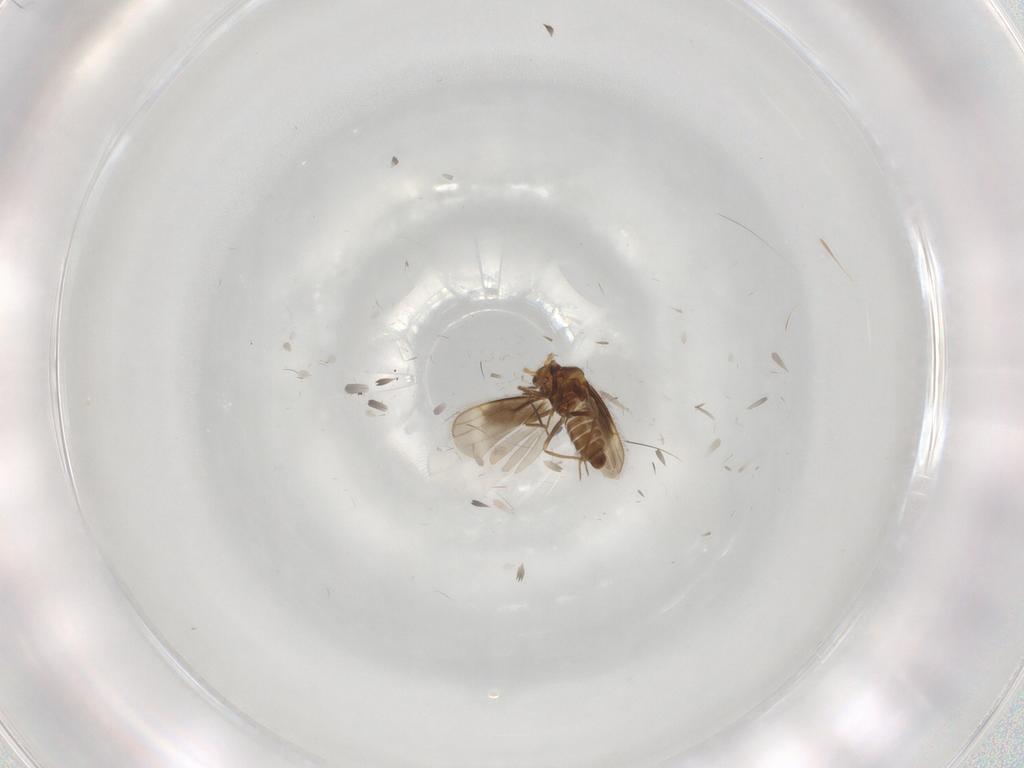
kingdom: Animalia
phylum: Arthropoda
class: Insecta
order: Hemiptera
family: Schizopteridae
